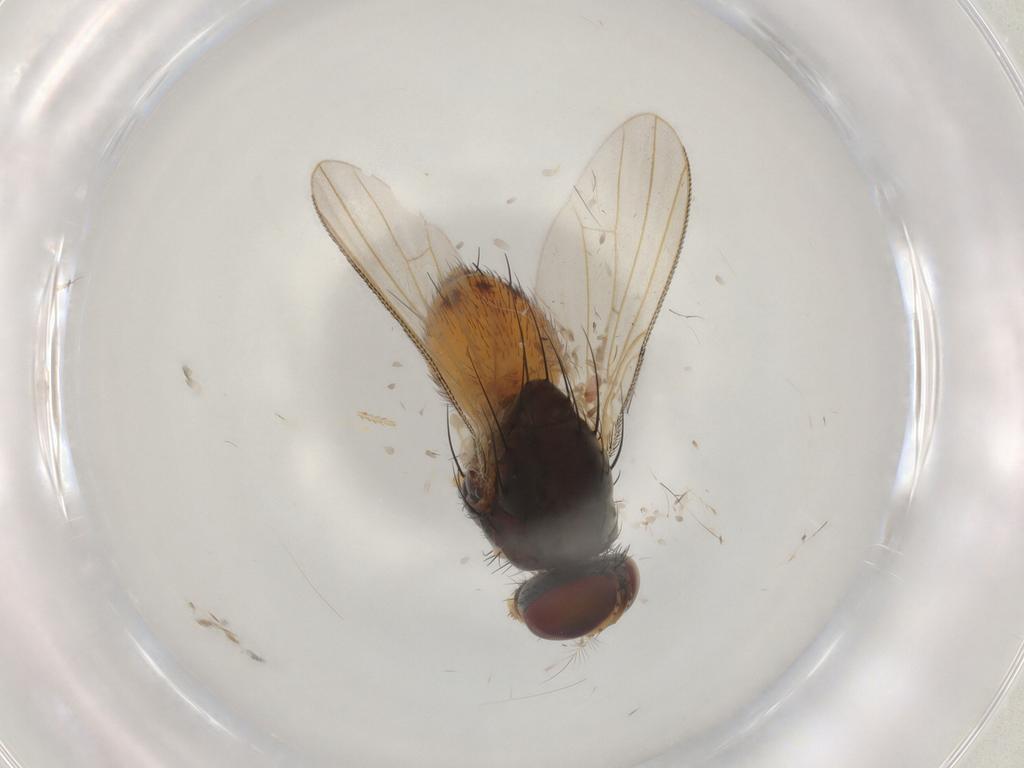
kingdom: Animalia
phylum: Arthropoda
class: Insecta
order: Diptera
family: Muscidae
